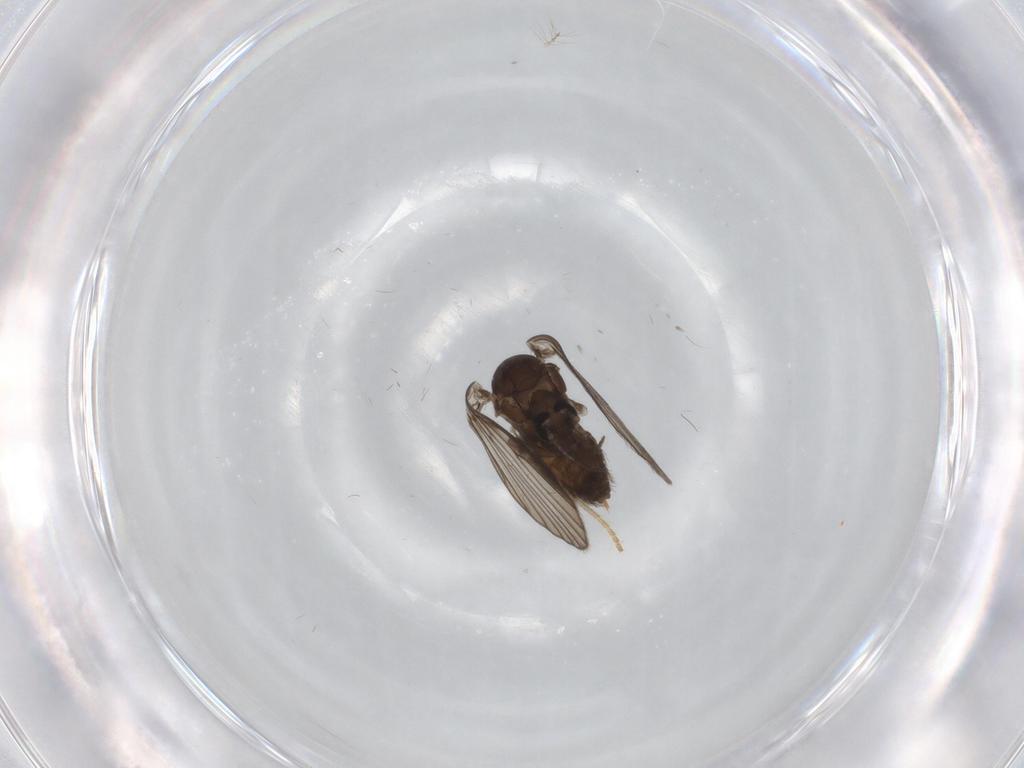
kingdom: Animalia
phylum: Arthropoda
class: Insecta
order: Diptera
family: Psychodidae
